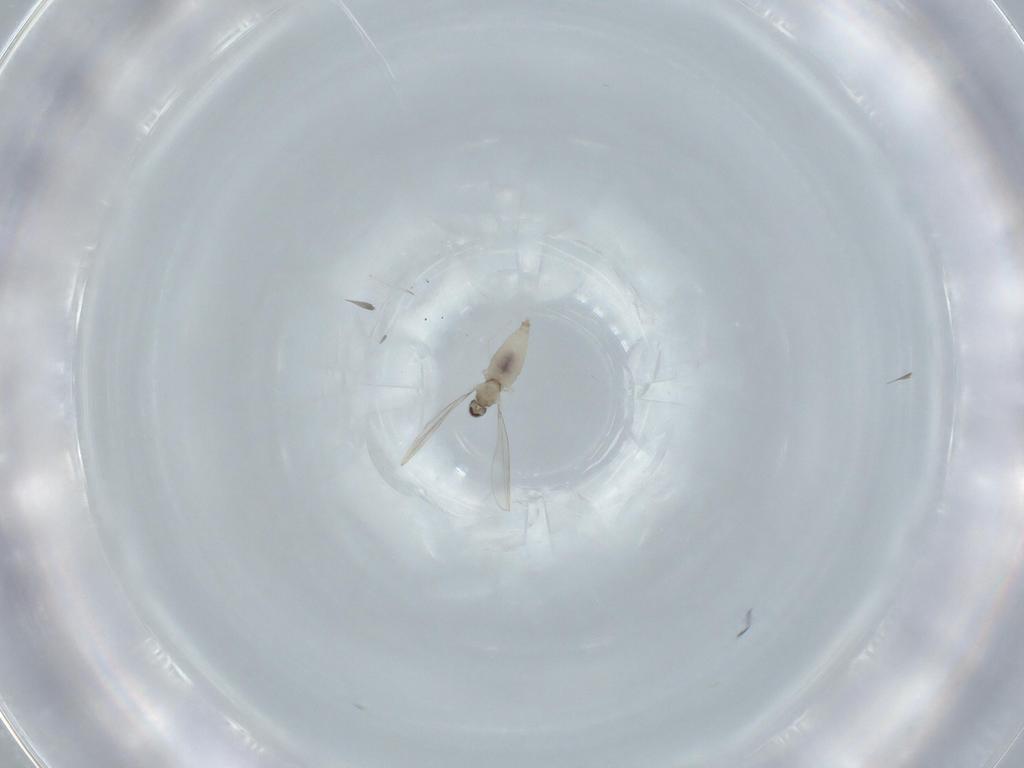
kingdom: Animalia
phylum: Arthropoda
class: Insecta
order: Diptera
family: Cecidomyiidae
